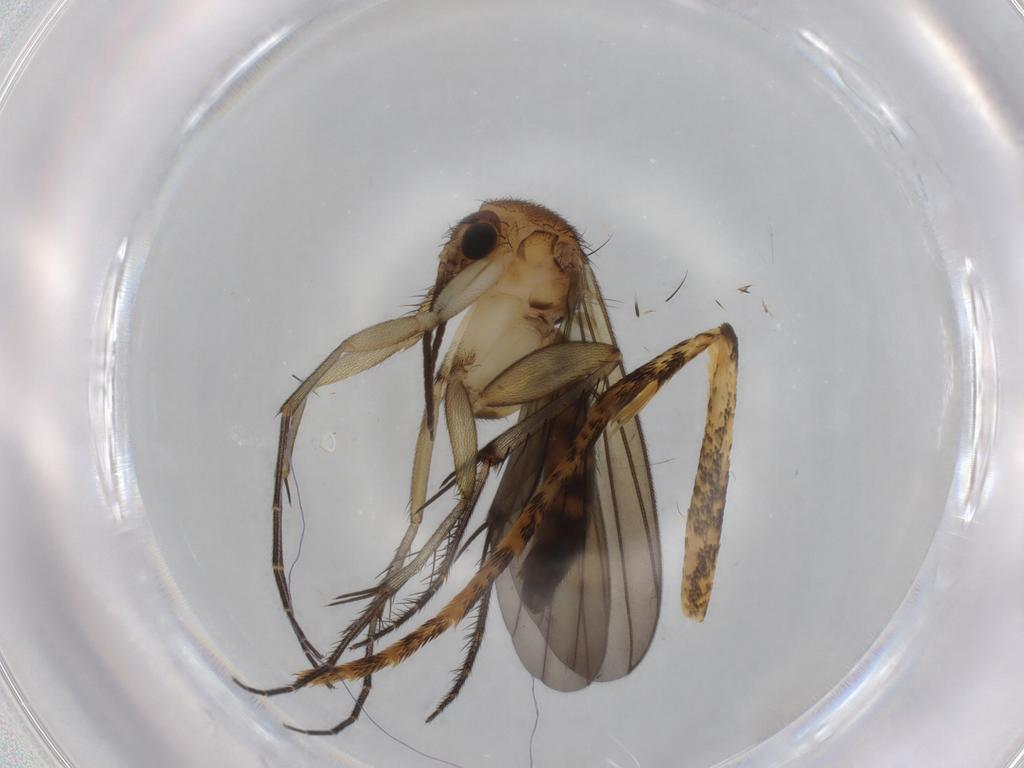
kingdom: Animalia
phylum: Arthropoda
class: Insecta
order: Diptera
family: Mycetophilidae
